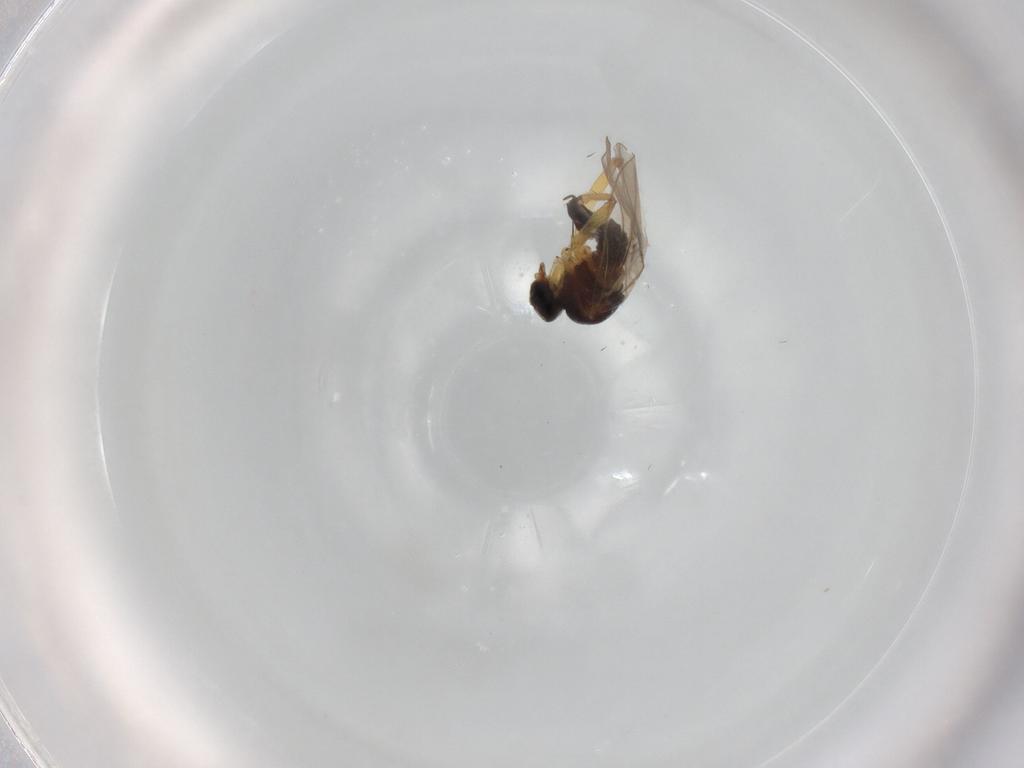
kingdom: Animalia
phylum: Arthropoda
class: Insecta
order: Diptera
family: Hybotidae
